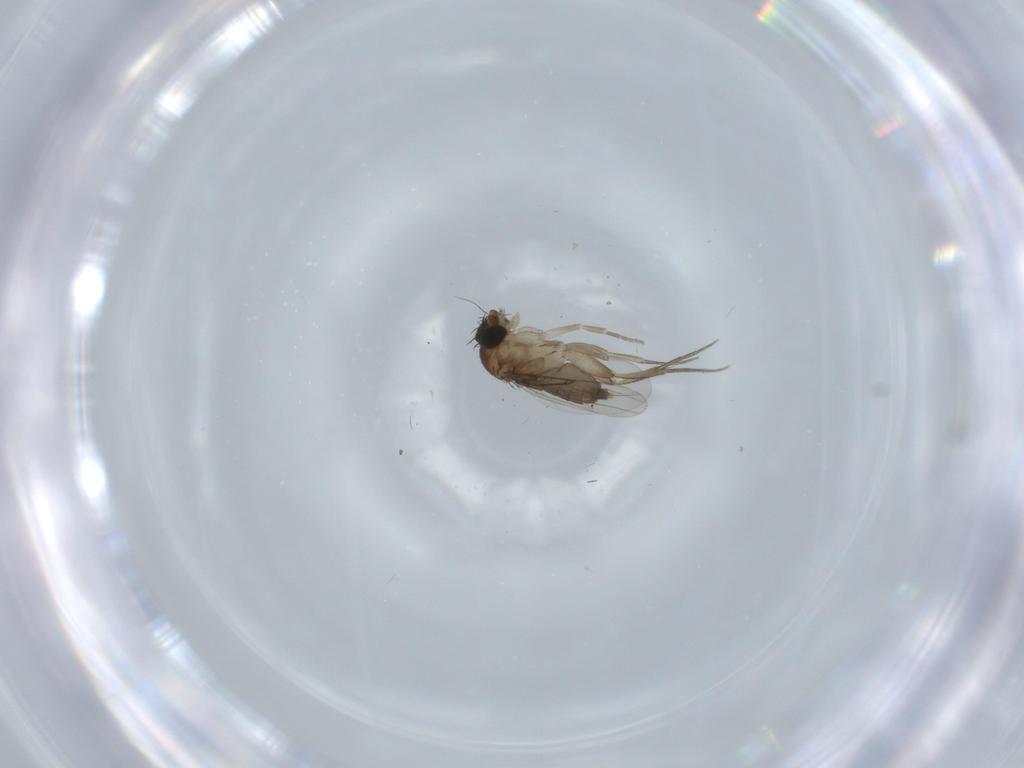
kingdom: Animalia
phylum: Arthropoda
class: Insecta
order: Diptera
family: Phoridae
